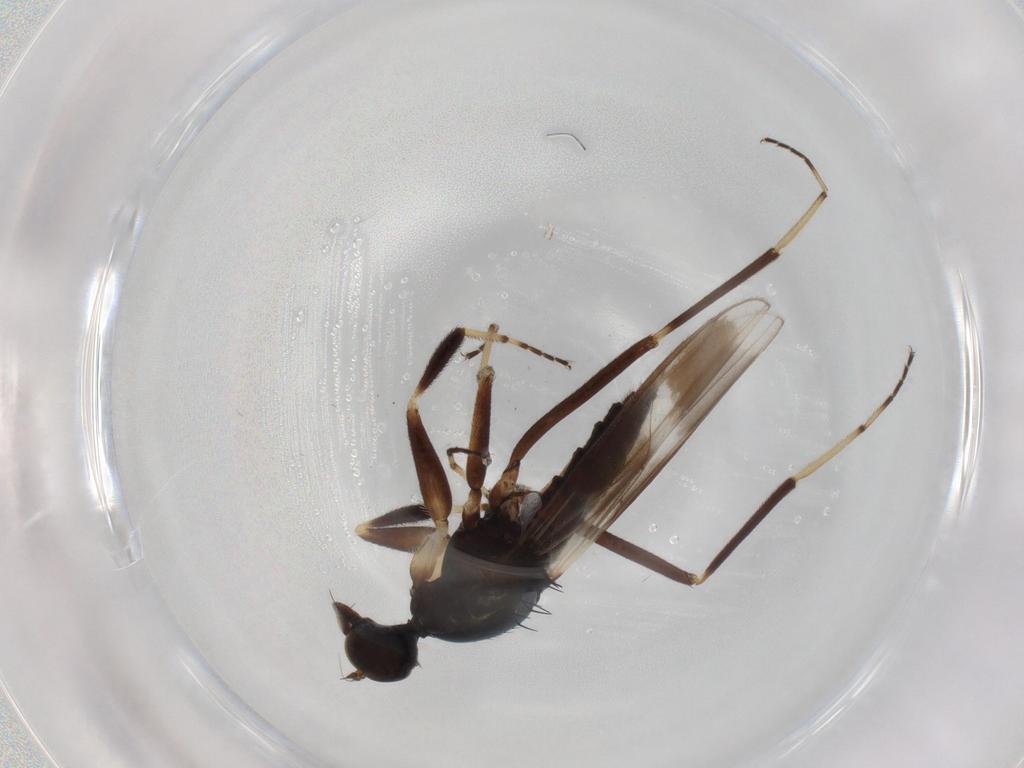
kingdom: Animalia
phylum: Arthropoda
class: Insecta
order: Diptera
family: Hybotidae
